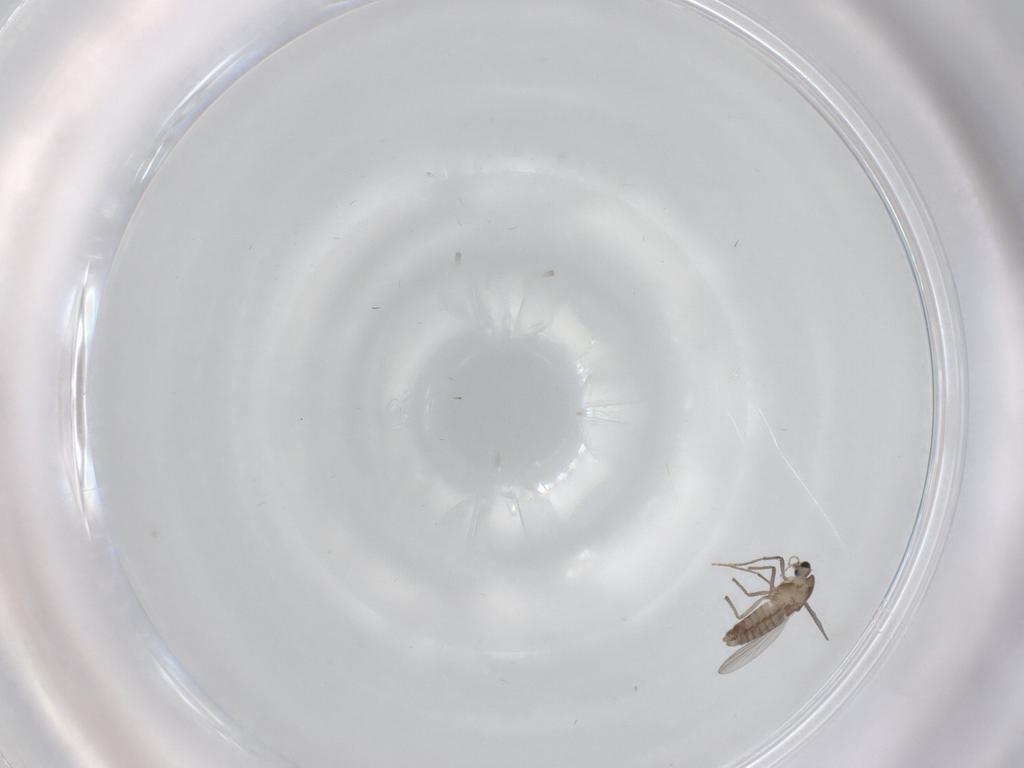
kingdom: Animalia
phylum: Arthropoda
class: Insecta
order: Diptera
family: Chironomidae
